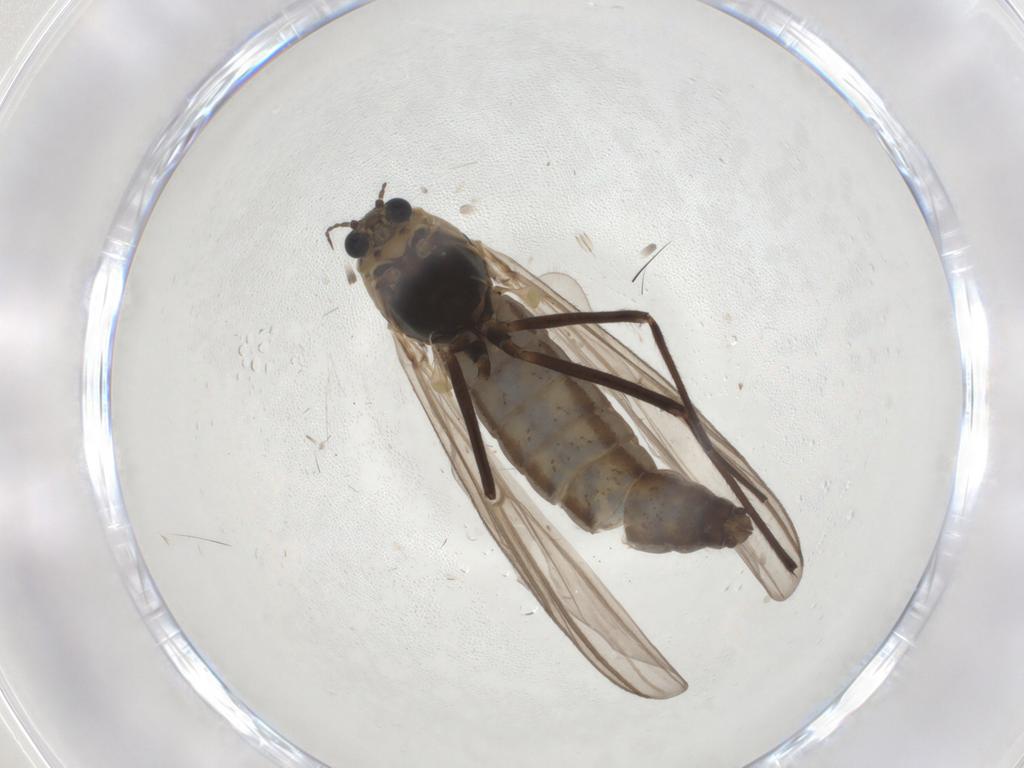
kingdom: Animalia
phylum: Arthropoda
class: Insecta
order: Diptera
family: Chironomidae
